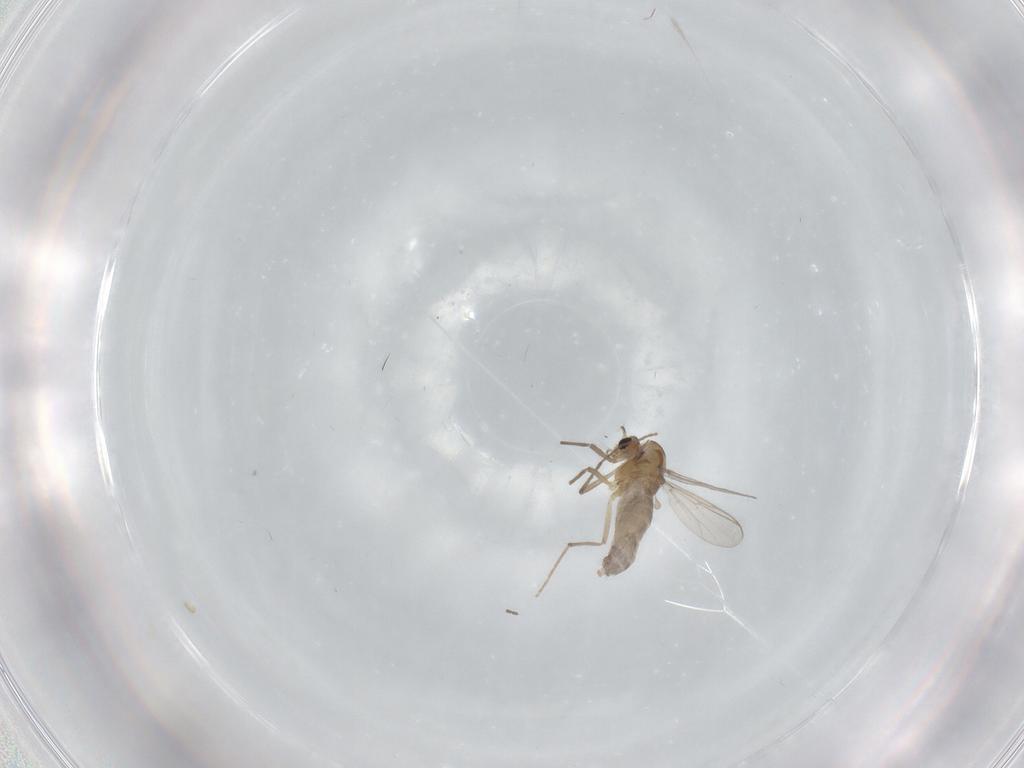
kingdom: Animalia
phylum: Arthropoda
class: Insecta
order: Diptera
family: Chironomidae
